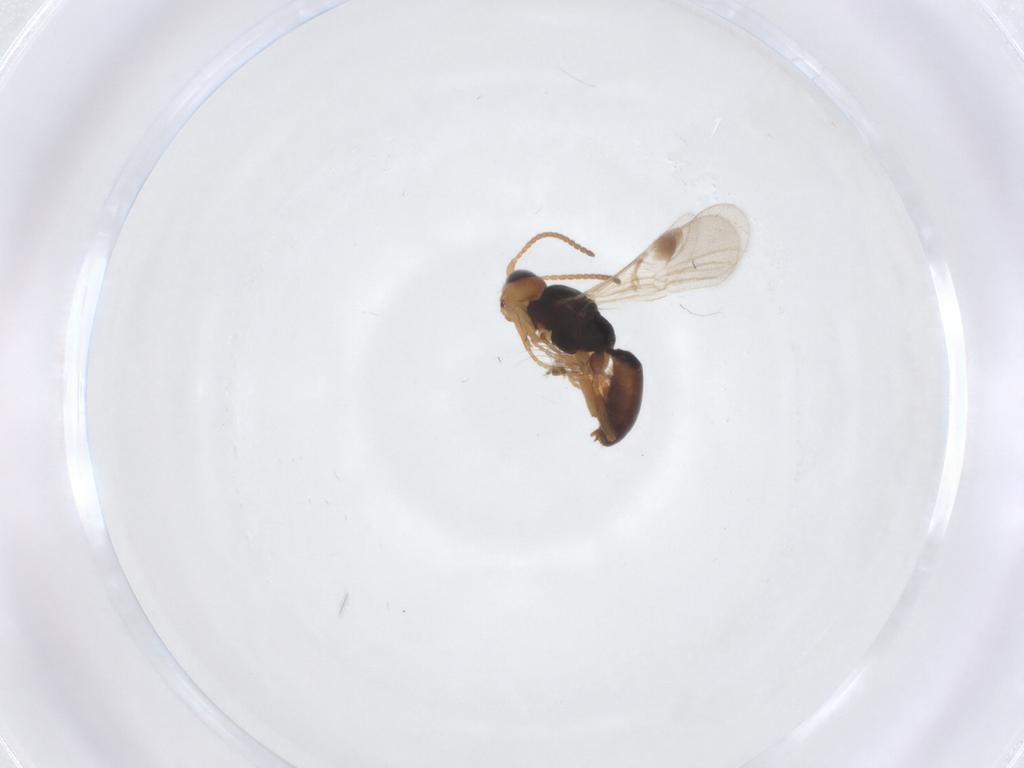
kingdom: Animalia
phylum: Arthropoda
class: Insecta
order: Hymenoptera
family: Braconidae
